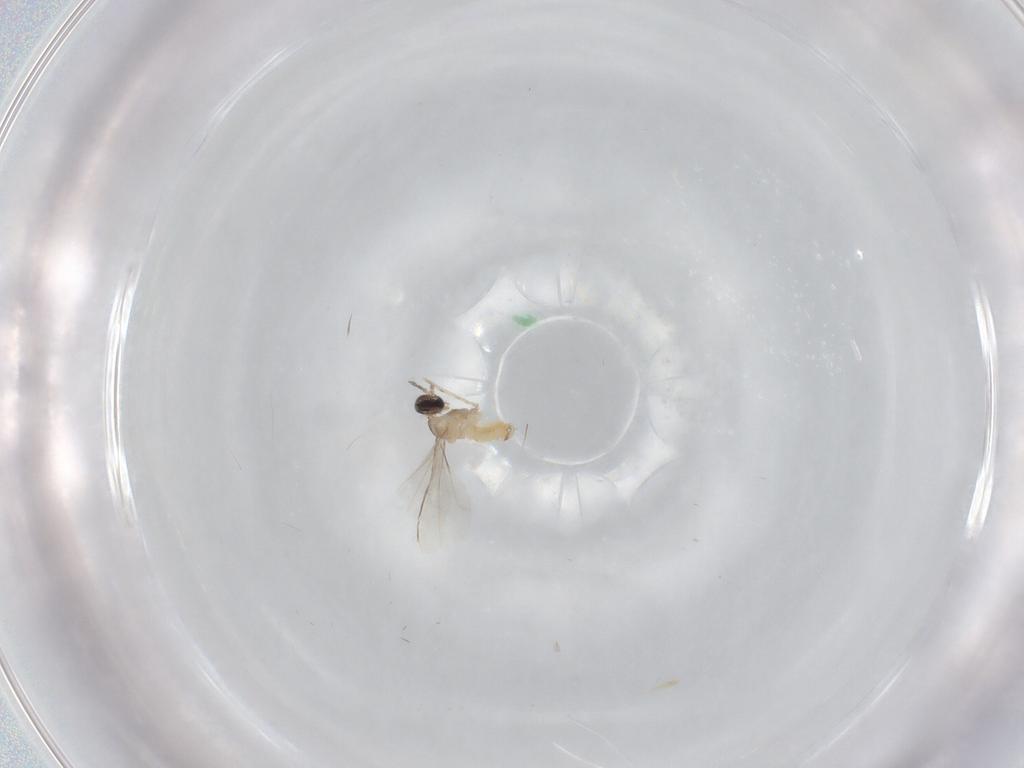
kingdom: Animalia
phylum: Arthropoda
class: Insecta
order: Diptera
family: Cecidomyiidae
